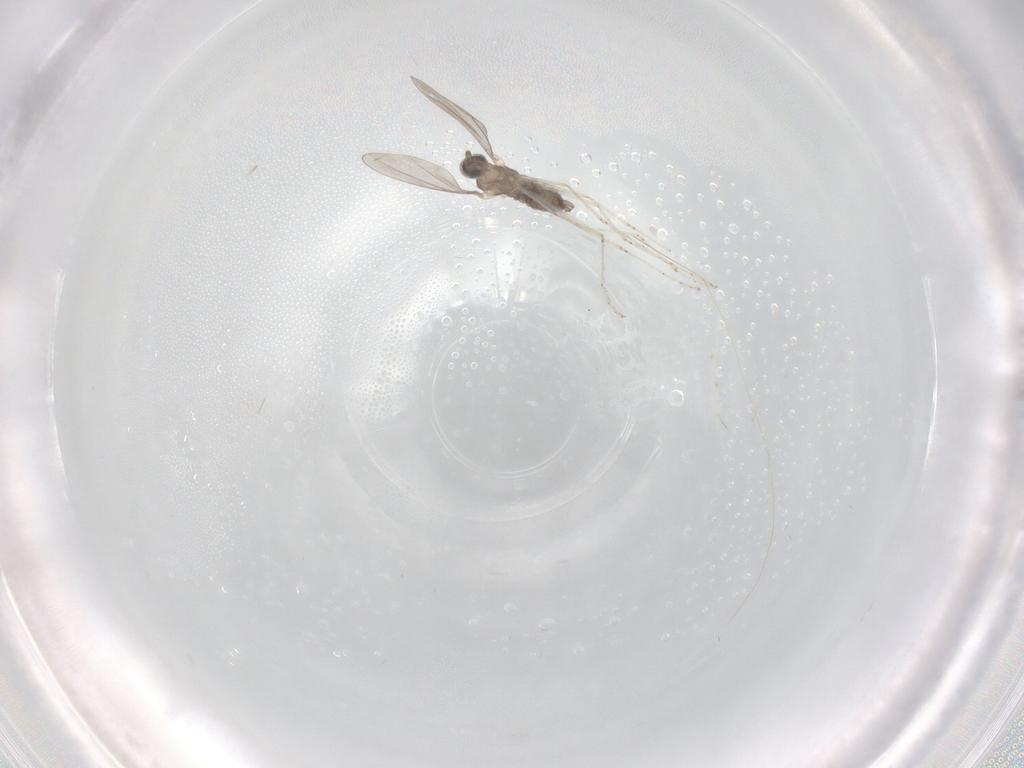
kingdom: Animalia
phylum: Arthropoda
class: Insecta
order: Diptera
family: Cecidomyiidae
